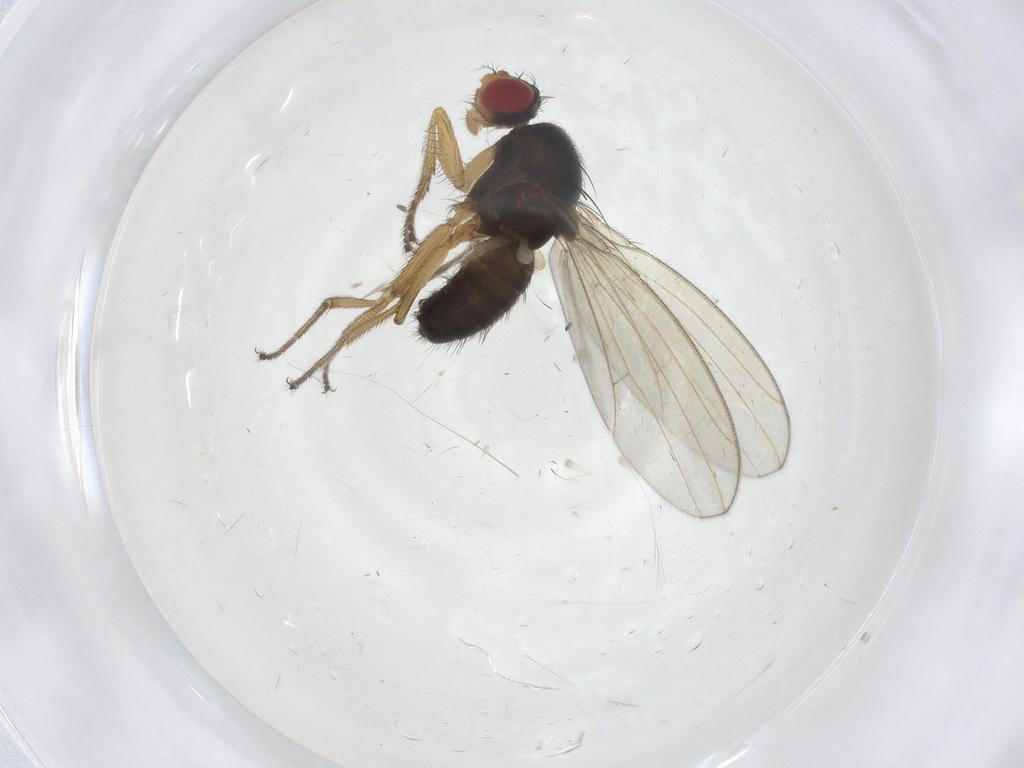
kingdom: Animalia
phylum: Arthropoda
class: Insecta
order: Diptera
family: Drosophilidae
